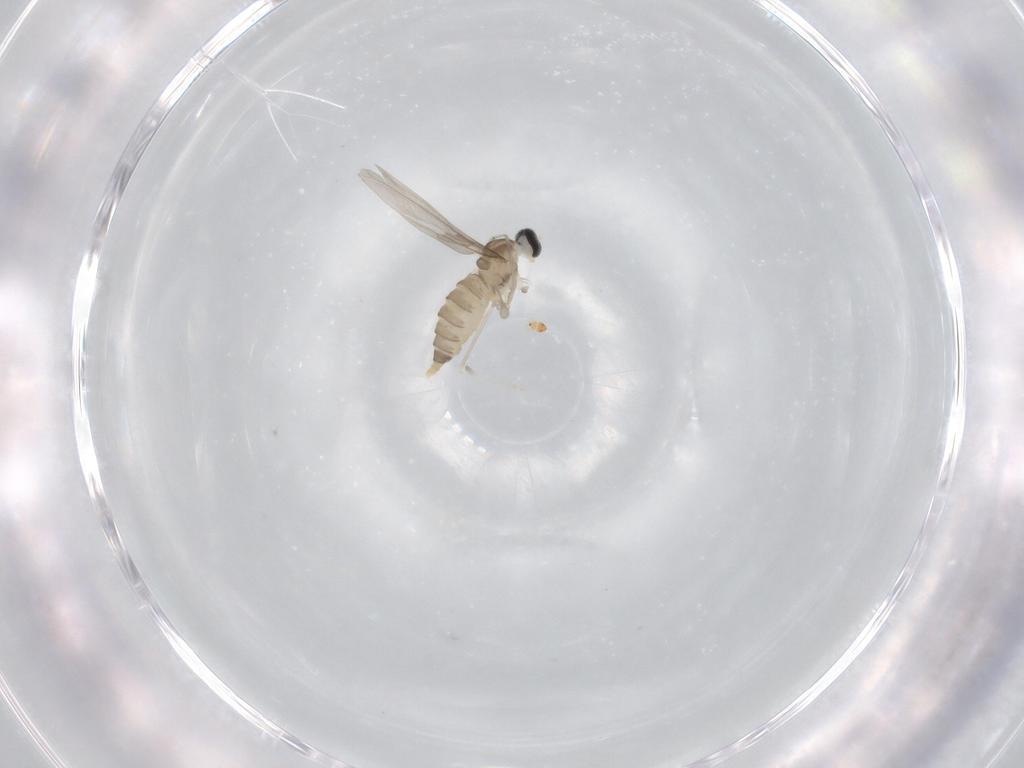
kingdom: Animalia
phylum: Arthropoda
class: Insecta
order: Diptera
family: Cecidomyiidae
